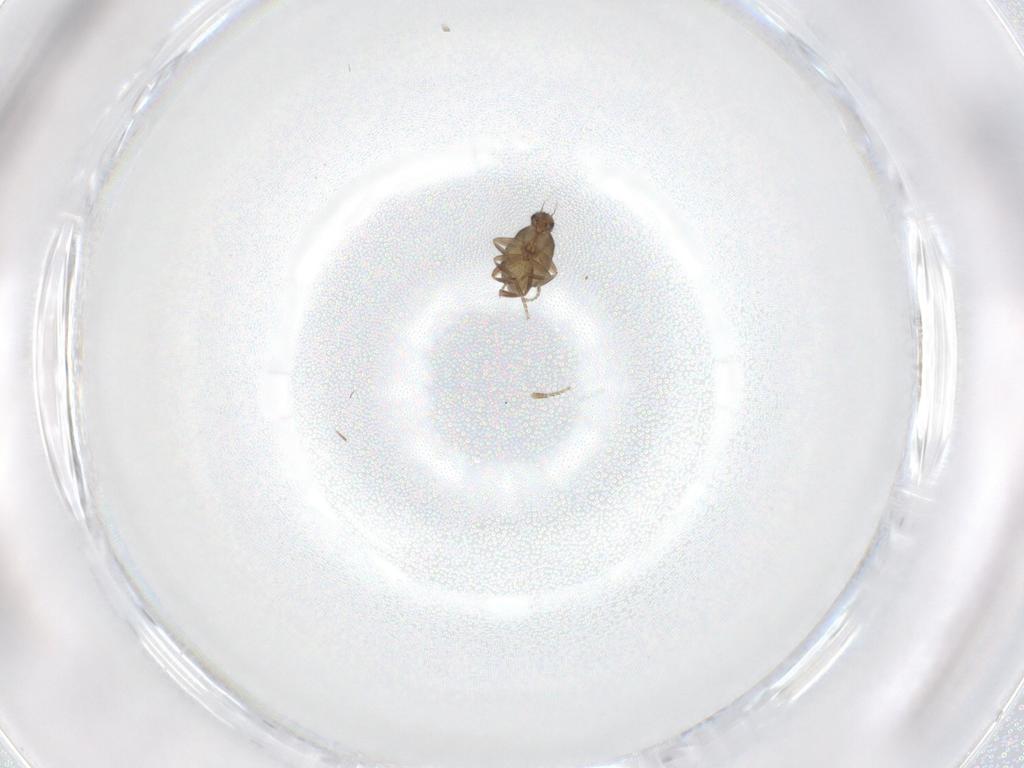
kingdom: Animalia
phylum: Arthropoda
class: Insecta
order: Diptera
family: Phoridae
